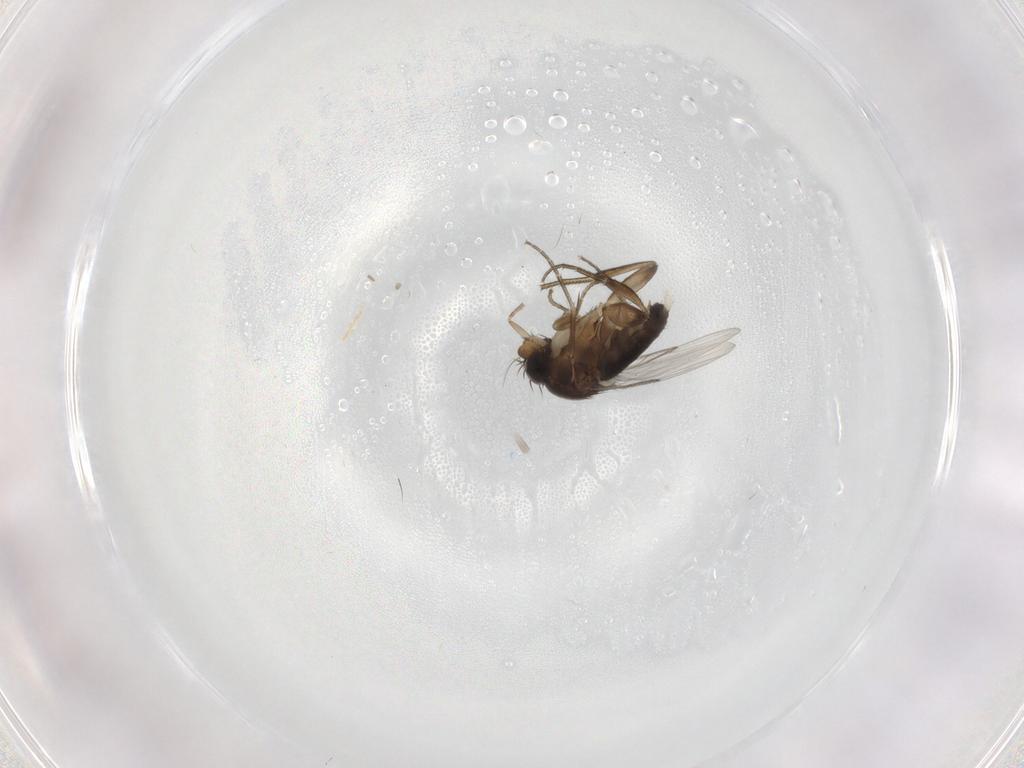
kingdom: Animalia
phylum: Arthropoda
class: Insecta
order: Diptera
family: Phoridae
